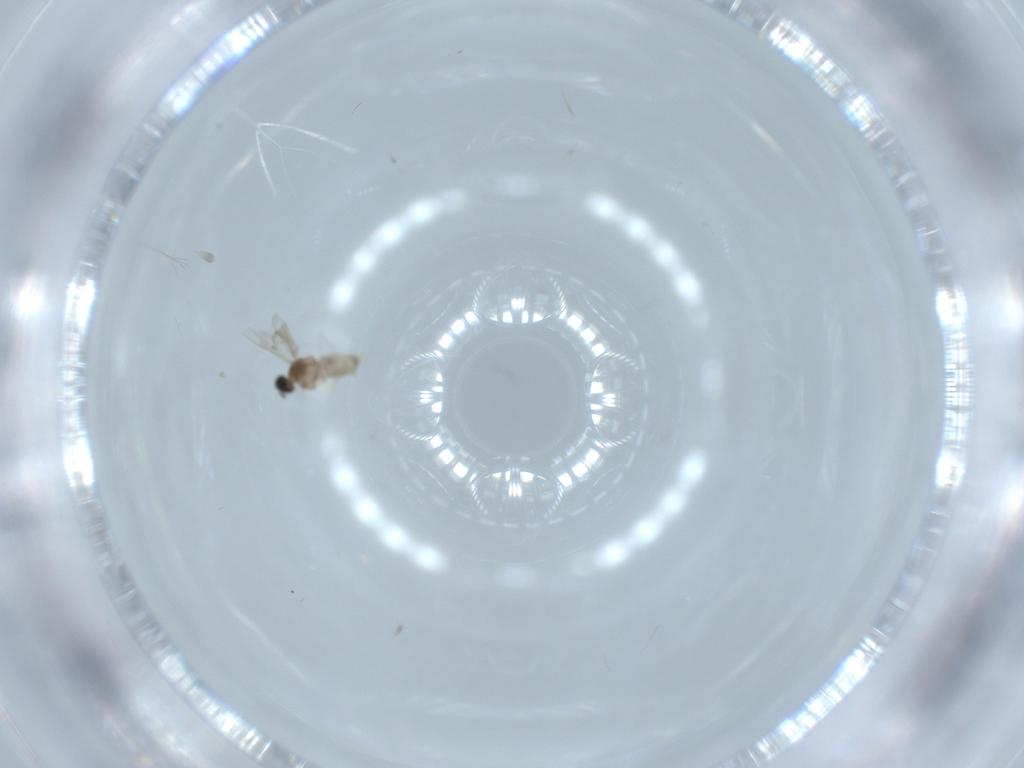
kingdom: Animalia
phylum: Arthropoda
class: Insecta
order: Diptera
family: Cecidomyiidae
